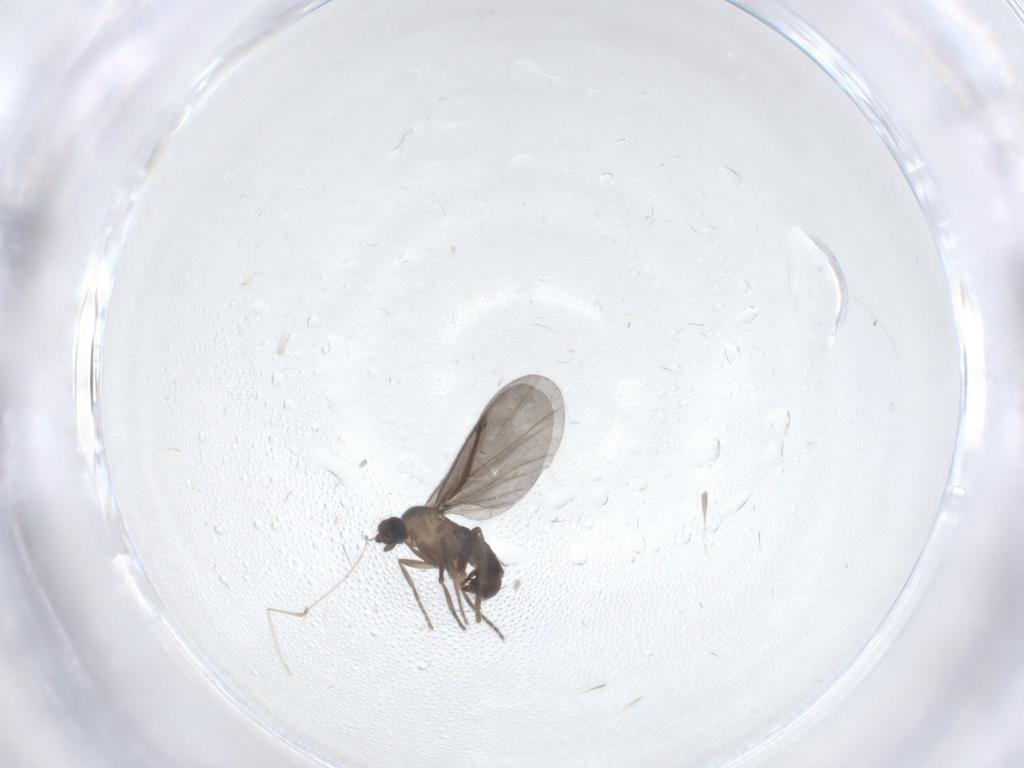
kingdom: Animalia
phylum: Arthropoda
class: Insecta
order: Diptera
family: Phoridae
